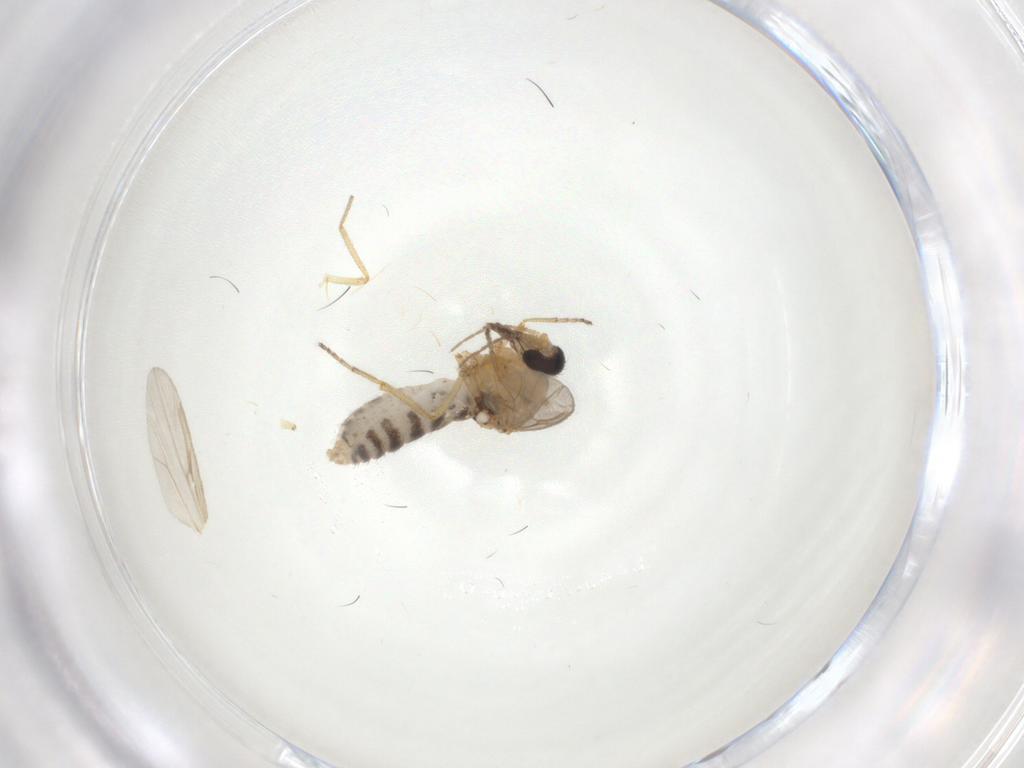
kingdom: Animalia
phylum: Arthropoda
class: Insecta
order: Diptera
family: Ceratopogonidae
